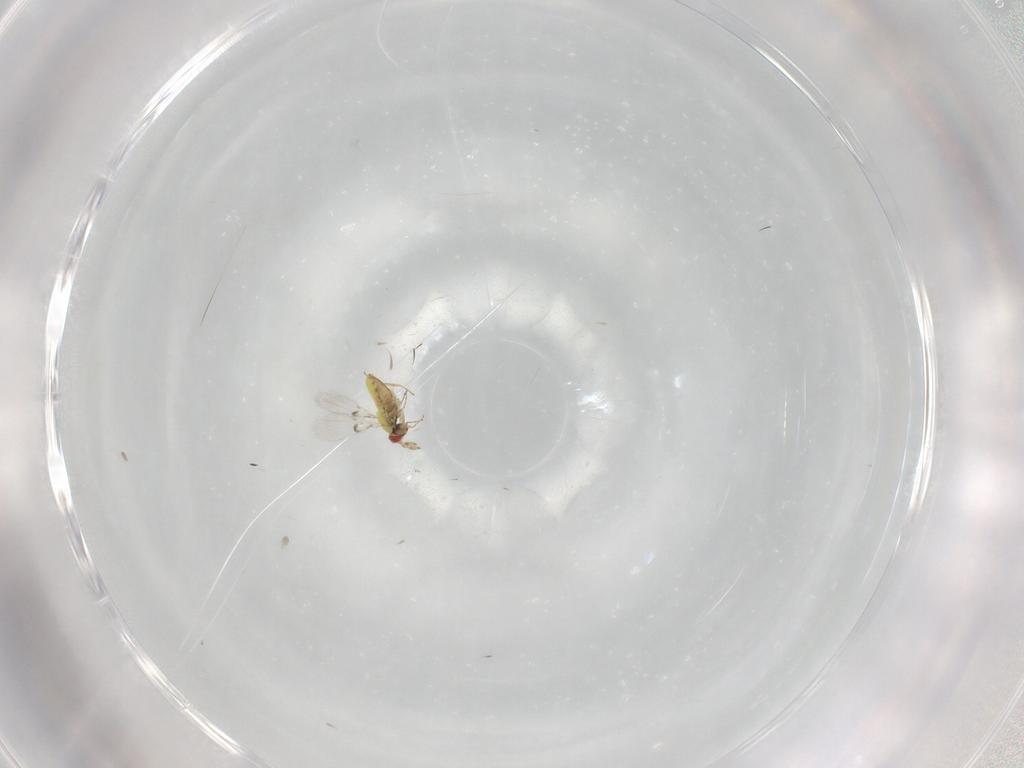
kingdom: Animalia
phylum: Arthropoda
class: Insecta
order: Hymenoptera
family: Trichogrammatidae
